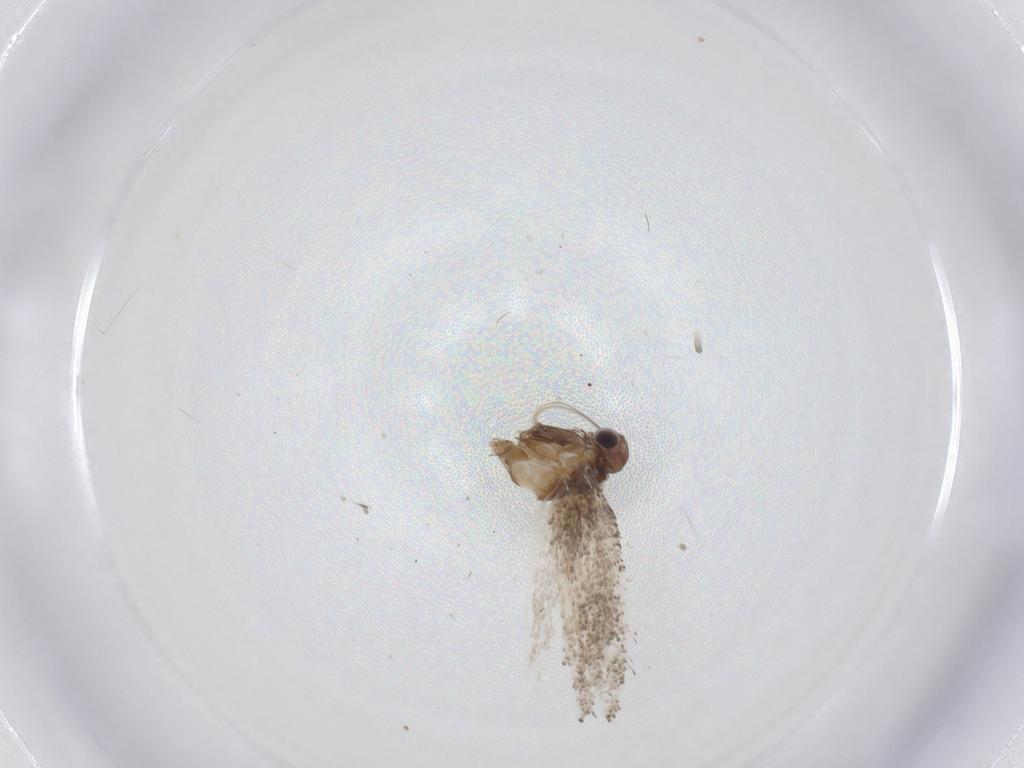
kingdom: Animalia
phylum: Arthropoda
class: Insecta
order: Lepidoptera
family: Gracillariidae
